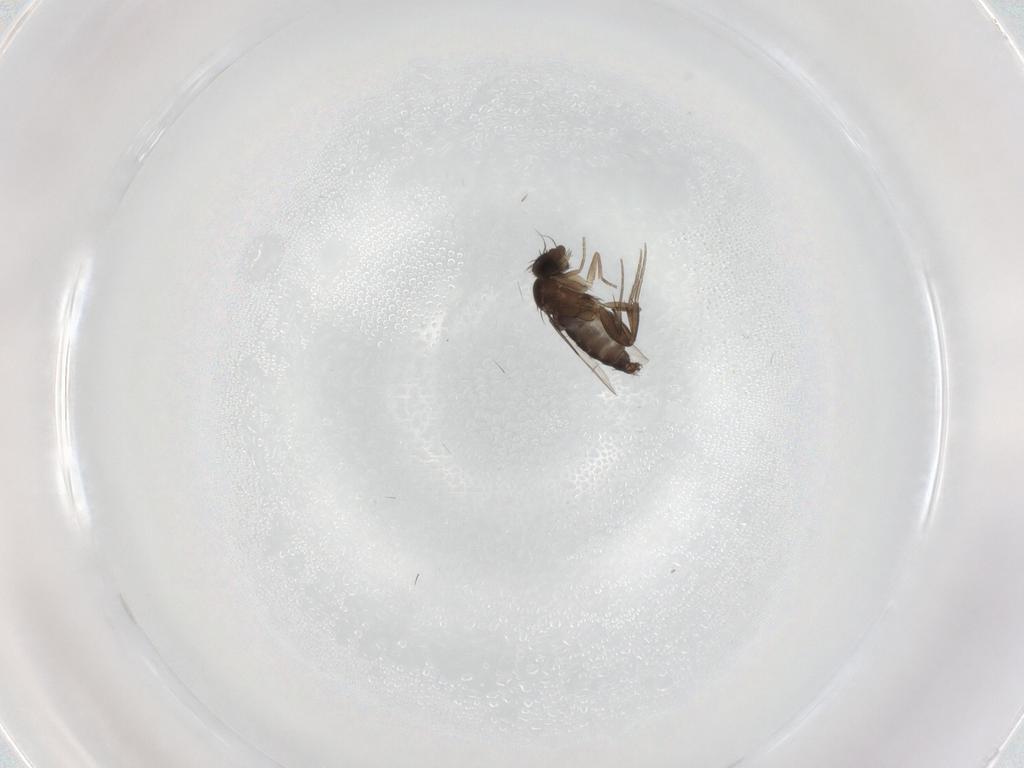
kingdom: Animalia
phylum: Arthropoda
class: Insecta
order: Diptera
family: Phoridae
